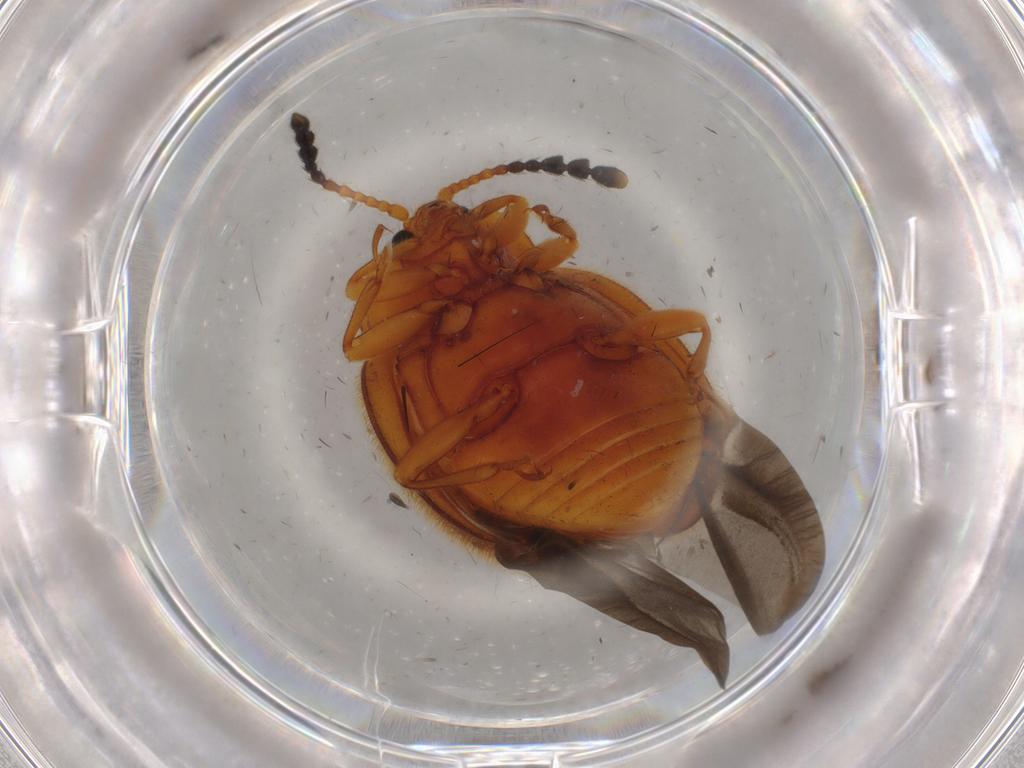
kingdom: Animalia
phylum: Arthropoda
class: Insecta
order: Coleoptera
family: Endomychidae
